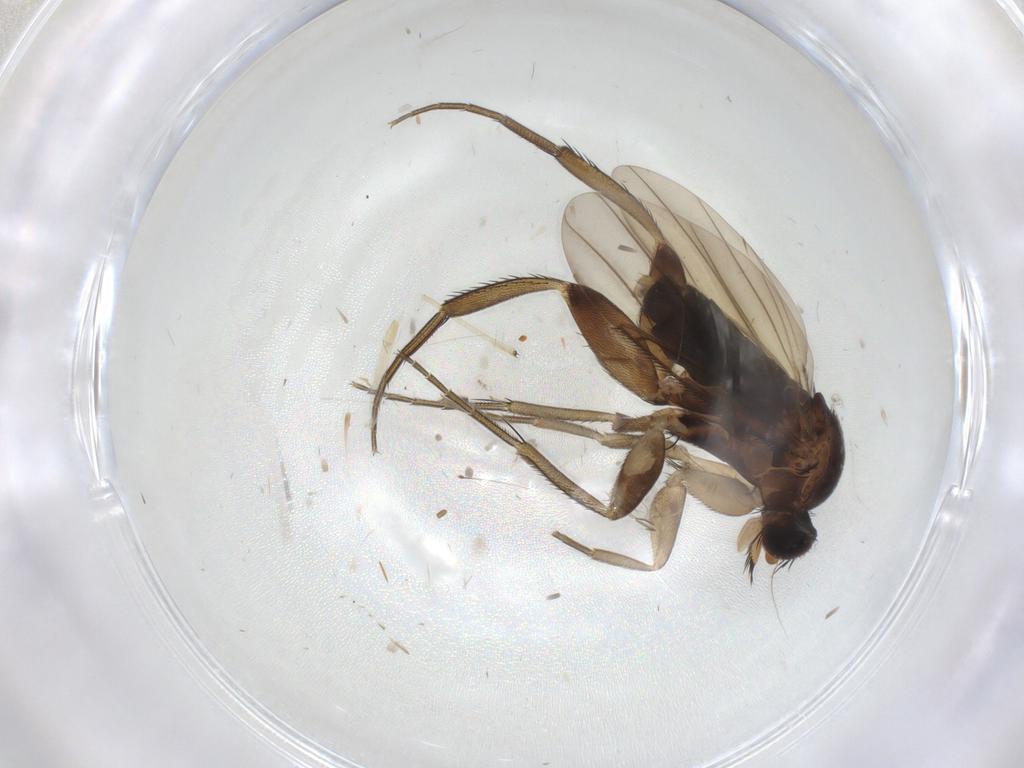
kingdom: Animalia
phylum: Arthropoda
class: Insecta
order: Diptera
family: Phoridae
